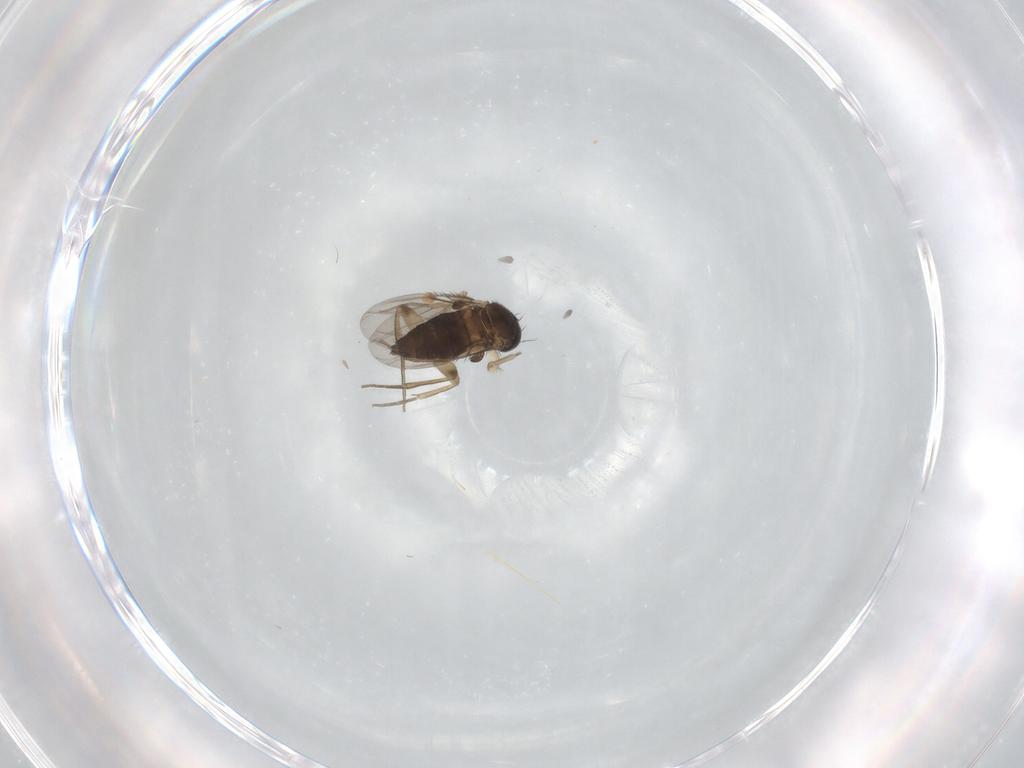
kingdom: Animalia
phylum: Arthropoda
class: Insecta
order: Diptera
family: Phoridae
